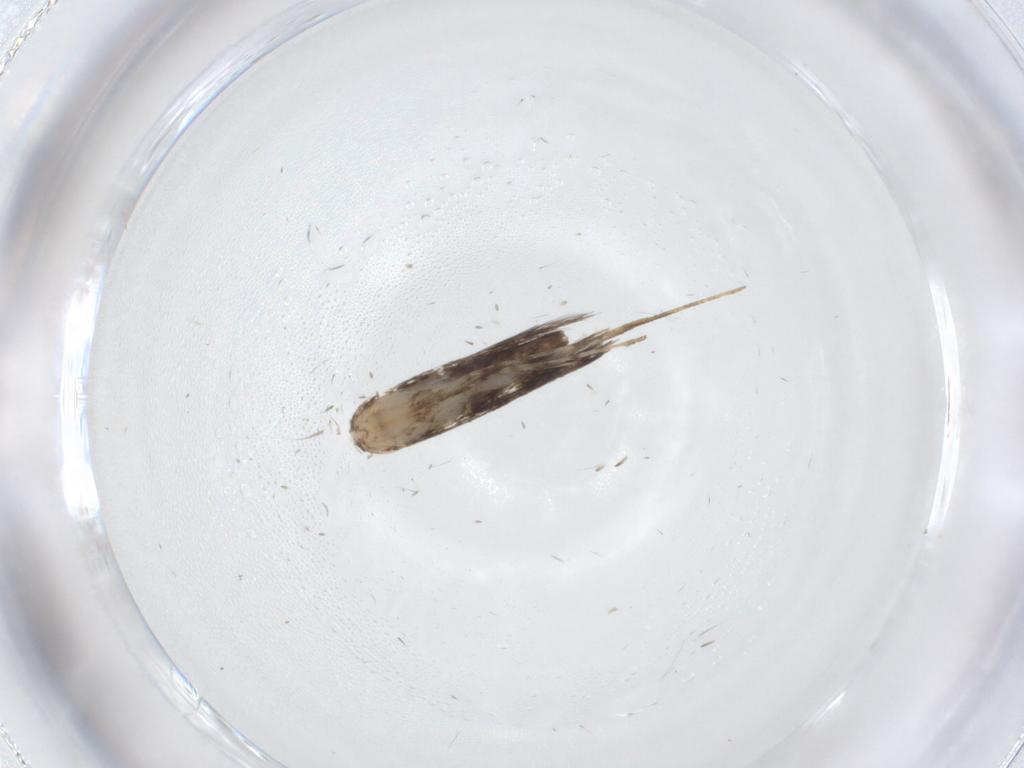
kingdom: Animalia
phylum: Arthropoda
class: Insecta
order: Lepidoptera
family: Gracillariidae
